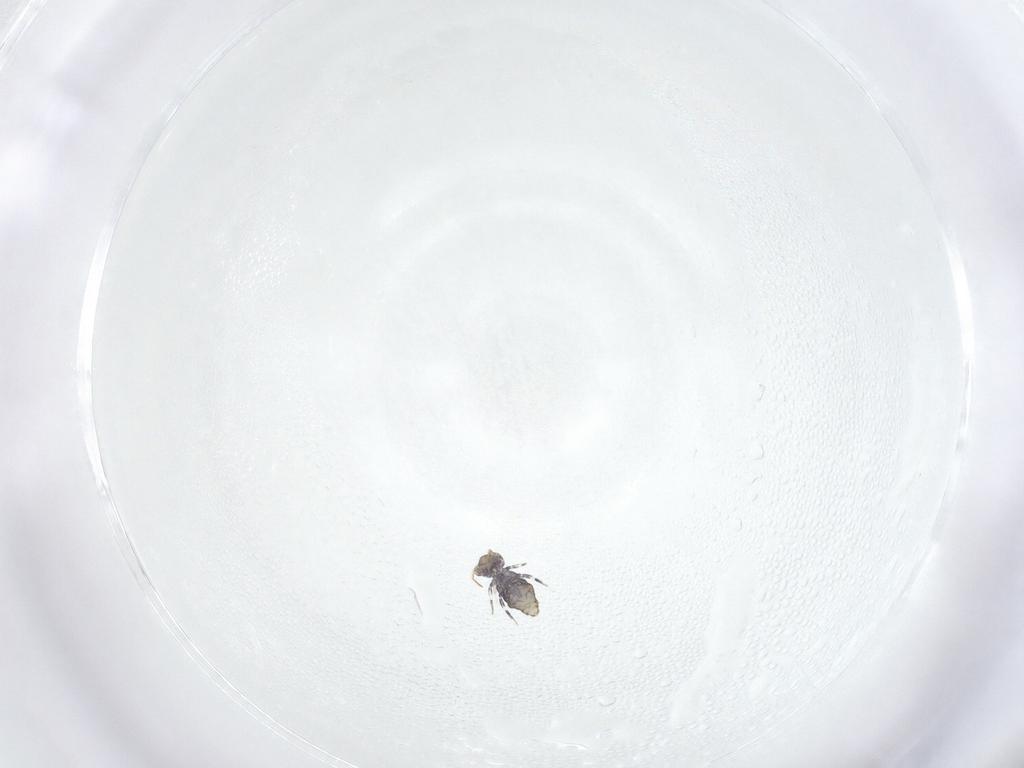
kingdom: Animalia
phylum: Arthropoda
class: Collembola
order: Symphypleona
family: Katiannidae
